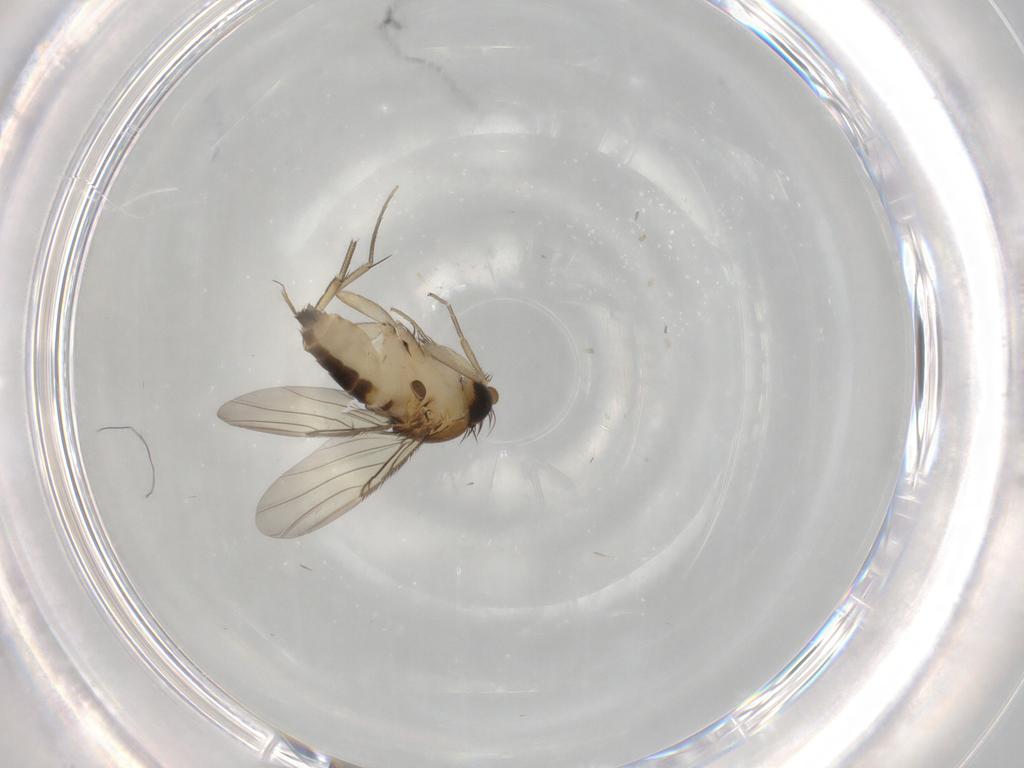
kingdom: Animalia
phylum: Arthropoda
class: Insecta
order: Diptera
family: Phoridae
